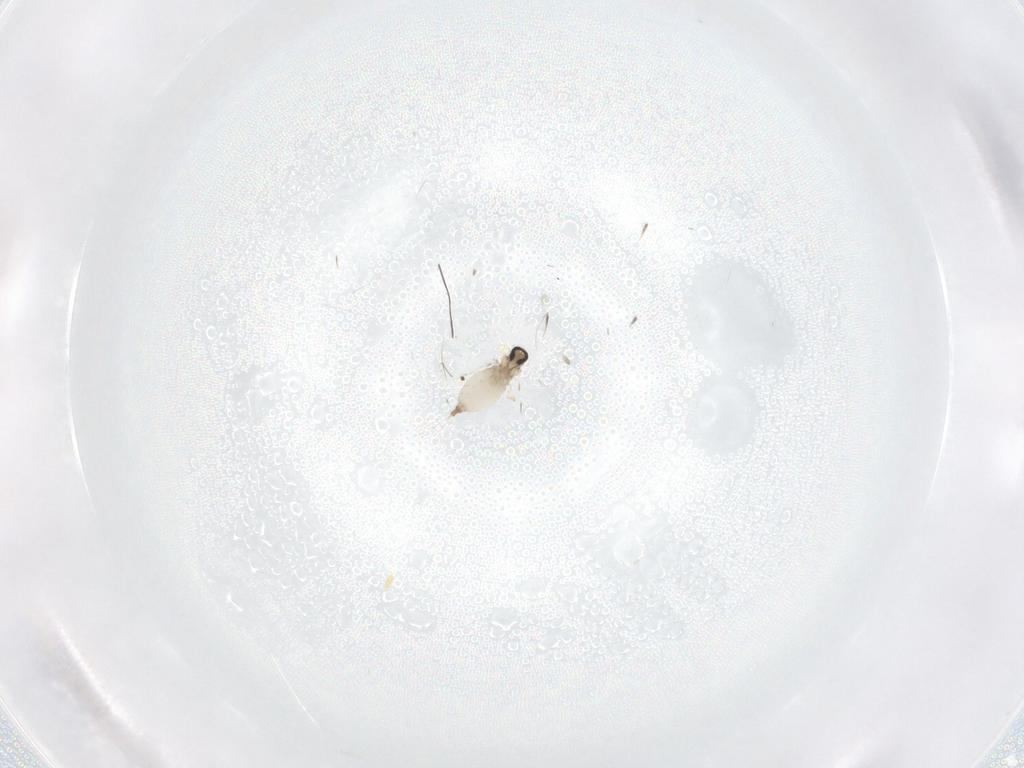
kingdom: Animalia
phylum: Arthropoda
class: Insecta
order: Diptera
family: Cecidomyiidae
